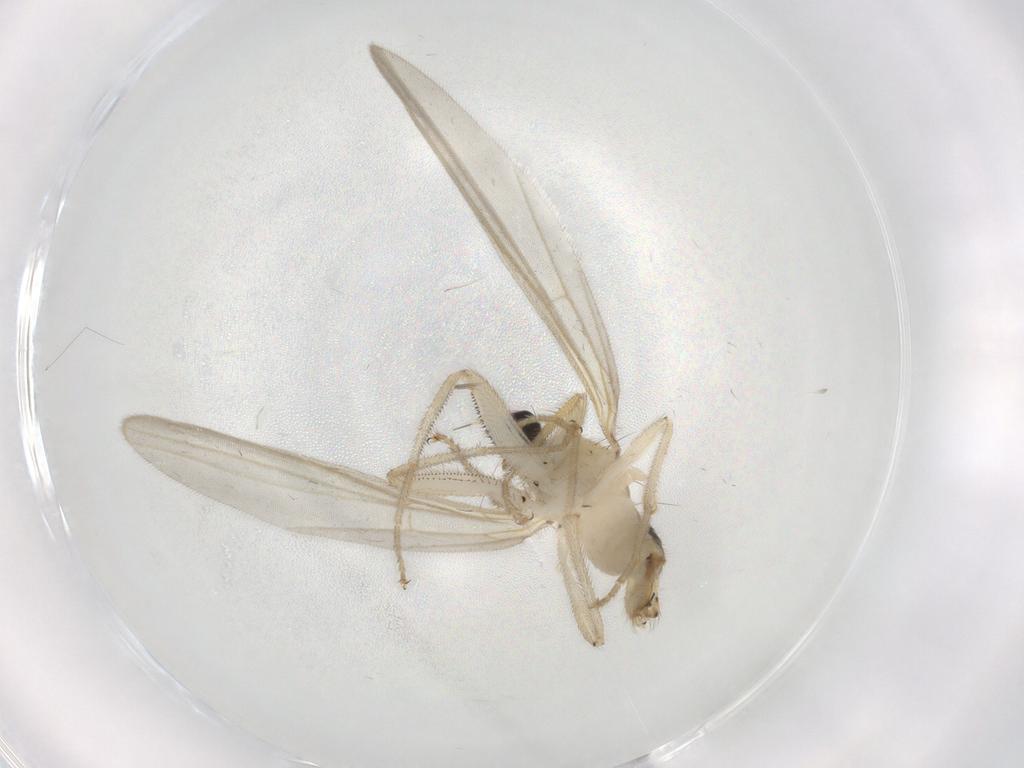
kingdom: Animalia
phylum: Arthropoda
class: Insecta
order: Diptera
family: Hybotidae
